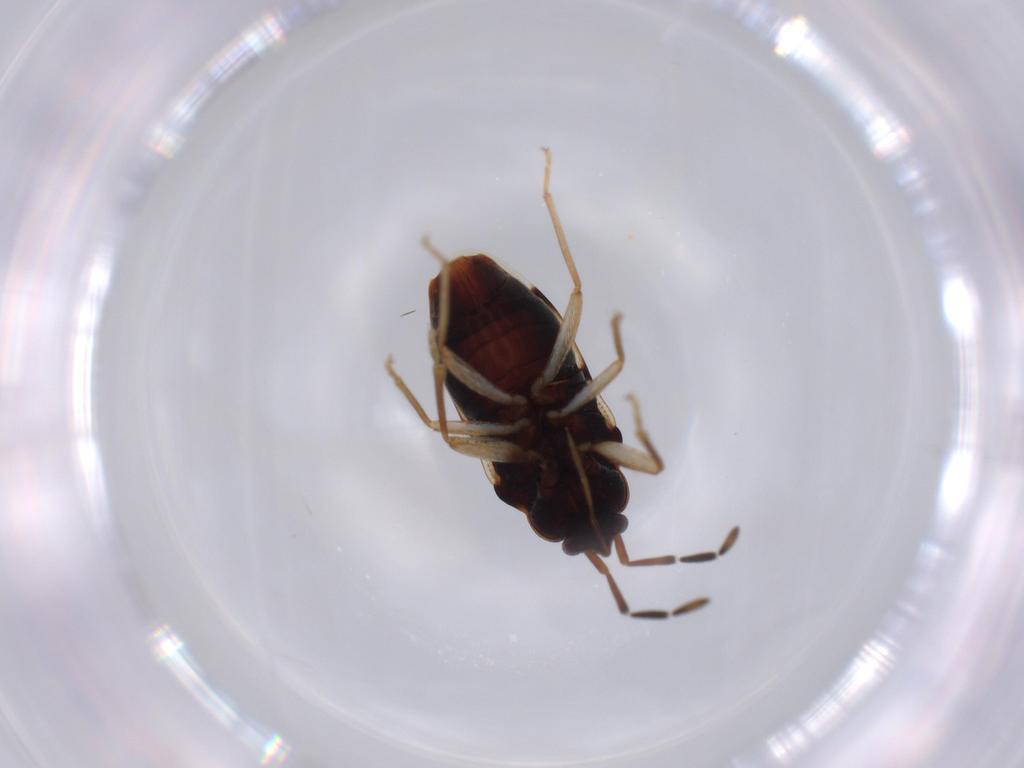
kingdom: Animalia
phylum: Arthropoda
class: Insecta
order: Hemiptera
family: Rhyparochromidae
